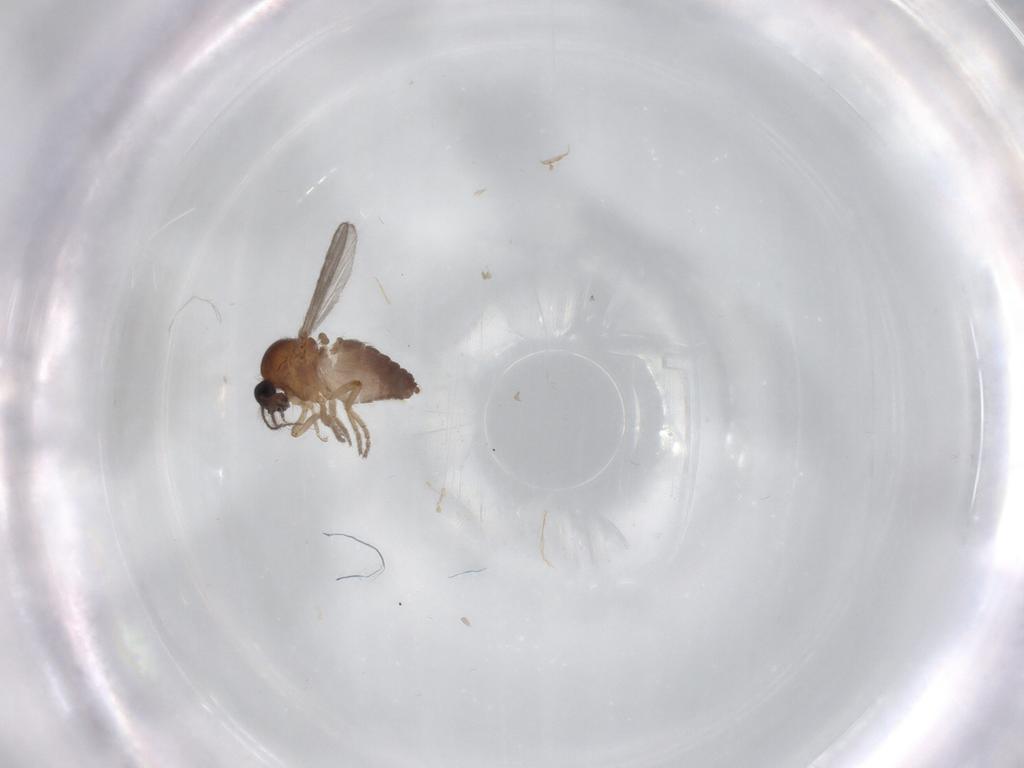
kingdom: Animalia
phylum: Arthropoda
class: Insecta
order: Diptera
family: Ceratopogonidae
